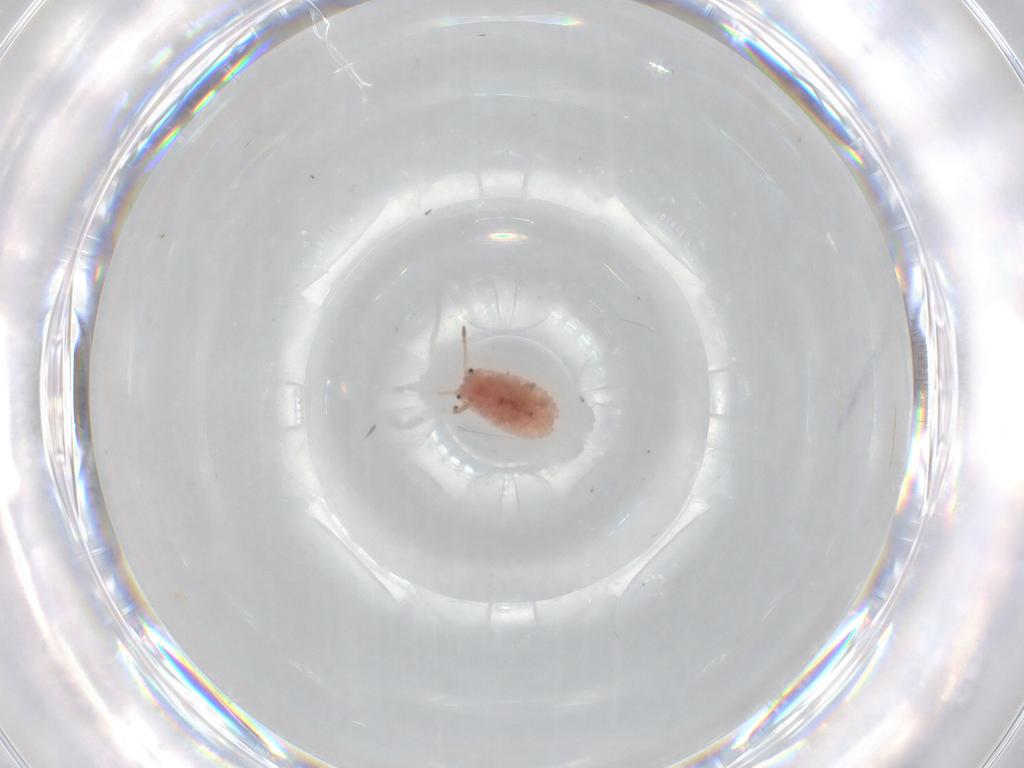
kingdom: Animalia
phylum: Arthropoda
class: Insecta
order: Hemiptera
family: Coccoidea_incertae_sedis
